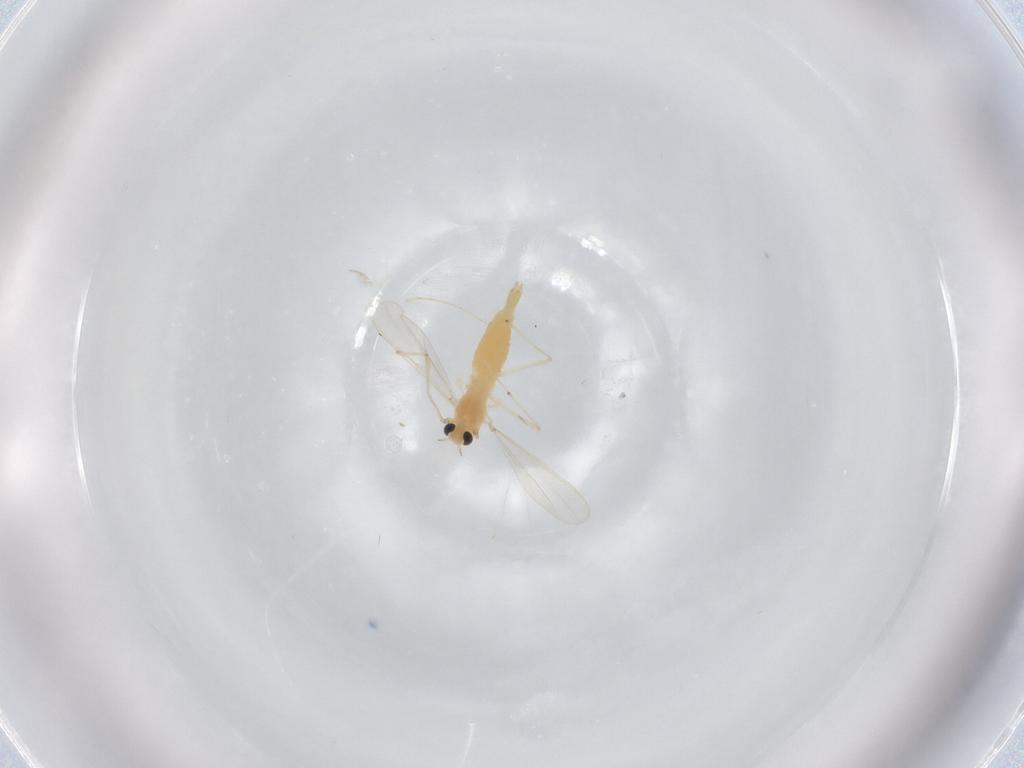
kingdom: Animalia
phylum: Arthropoda
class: Insecta
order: Diptera
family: Chironomidae
